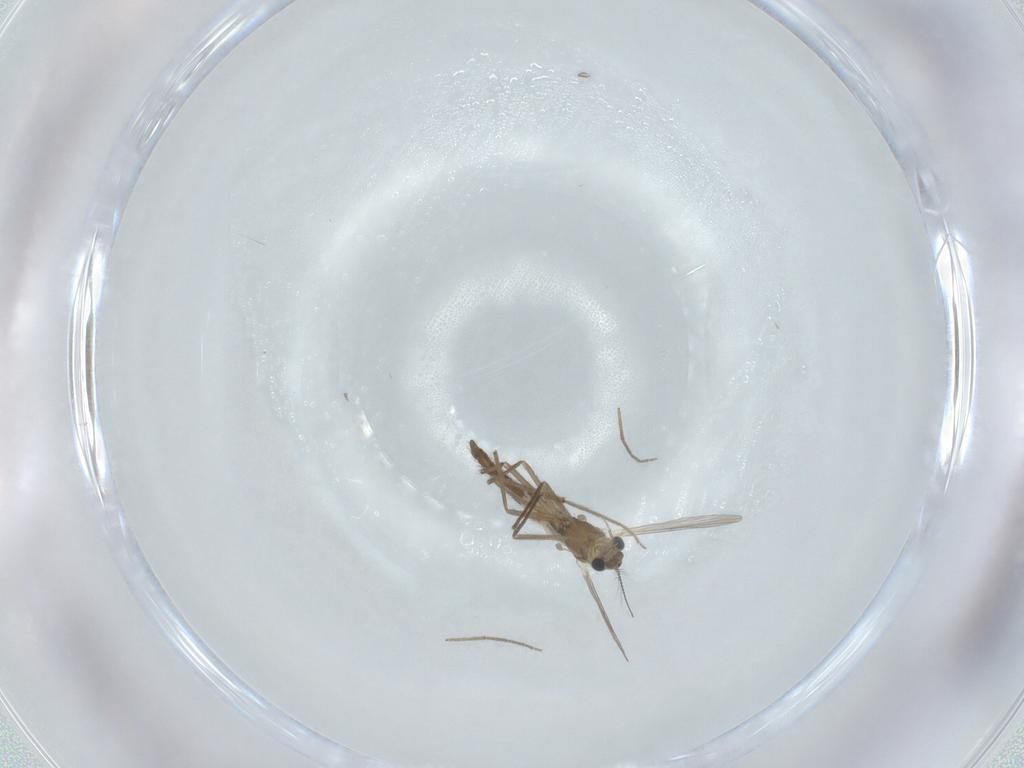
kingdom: Animalia
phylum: Arthropoda
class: Insecta
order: Diptera
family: Chironomidae
